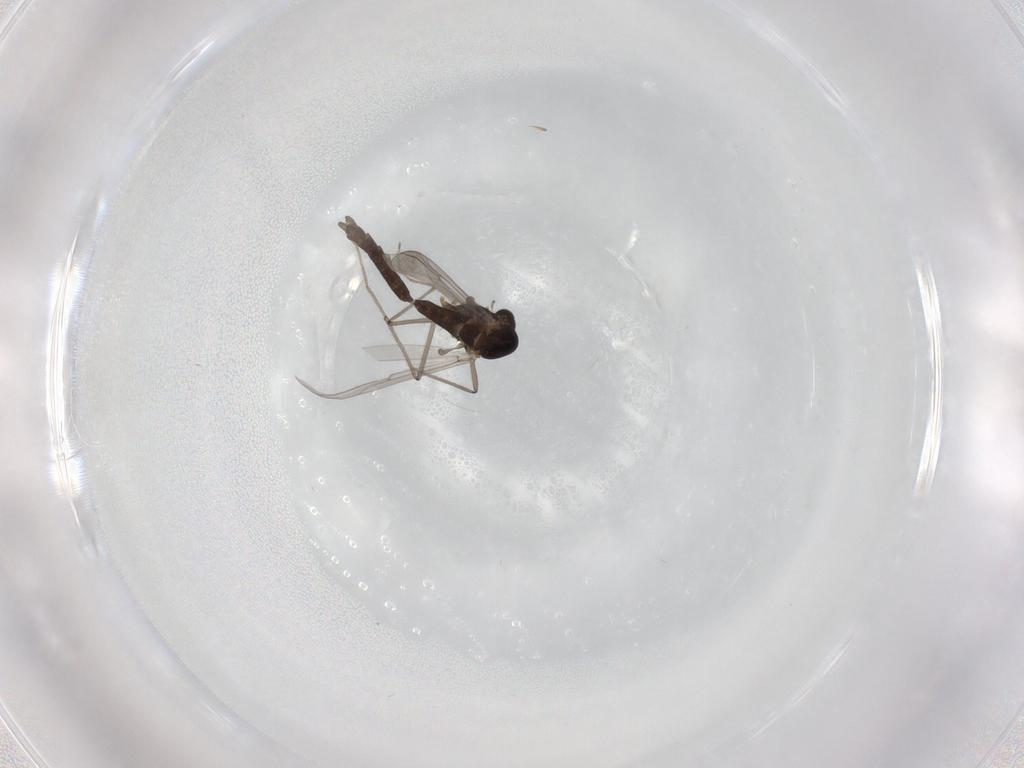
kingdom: Animalia
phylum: Arthropoda
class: Insecta
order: Diptera
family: Chironomidae
